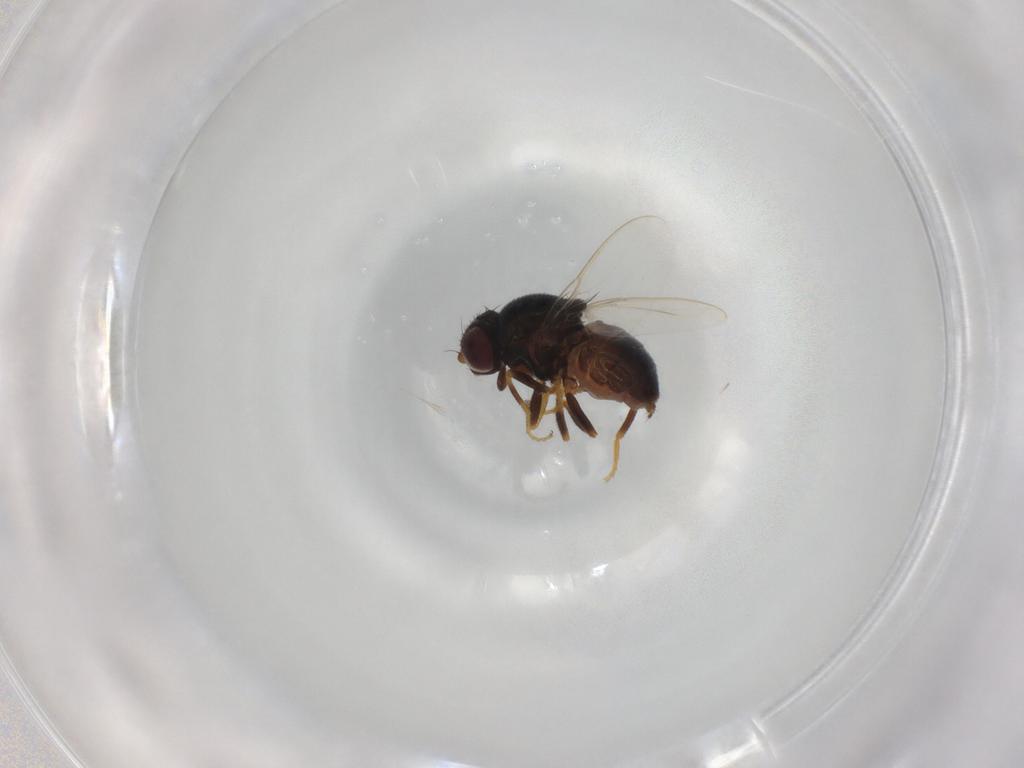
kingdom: Animalia
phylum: Arthropoda
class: Insecta
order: Diptera
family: Chloropidae
